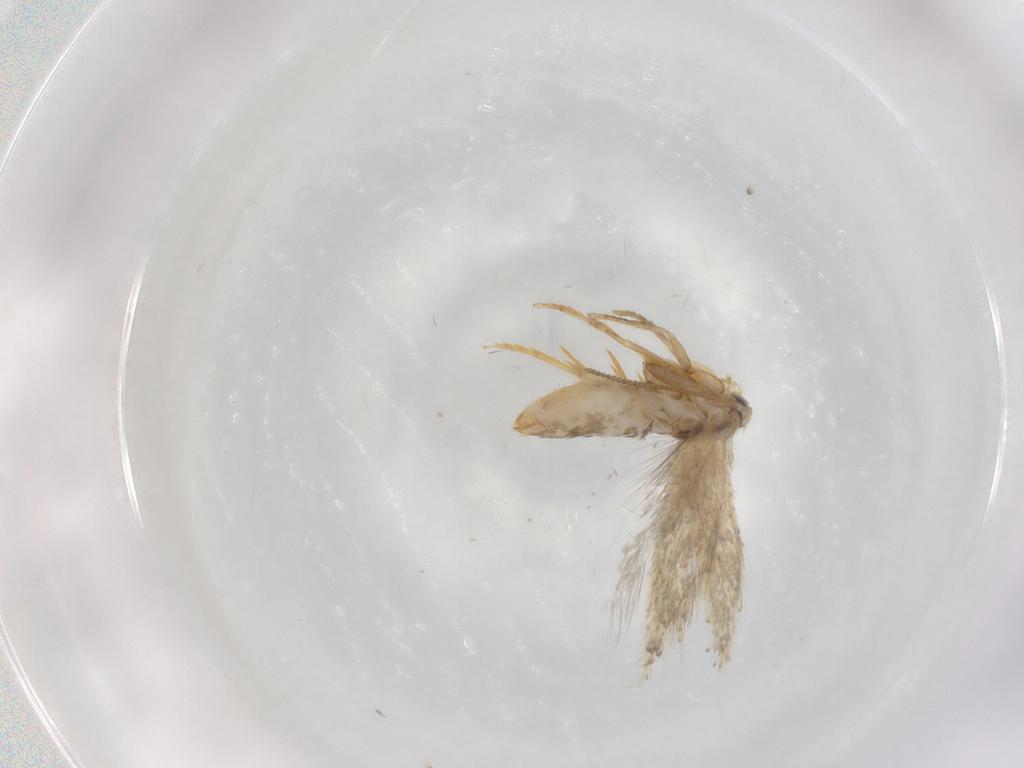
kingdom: Animalia
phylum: Arthropoda
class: Insecta
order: Lepidoptera
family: Nepticulidae
